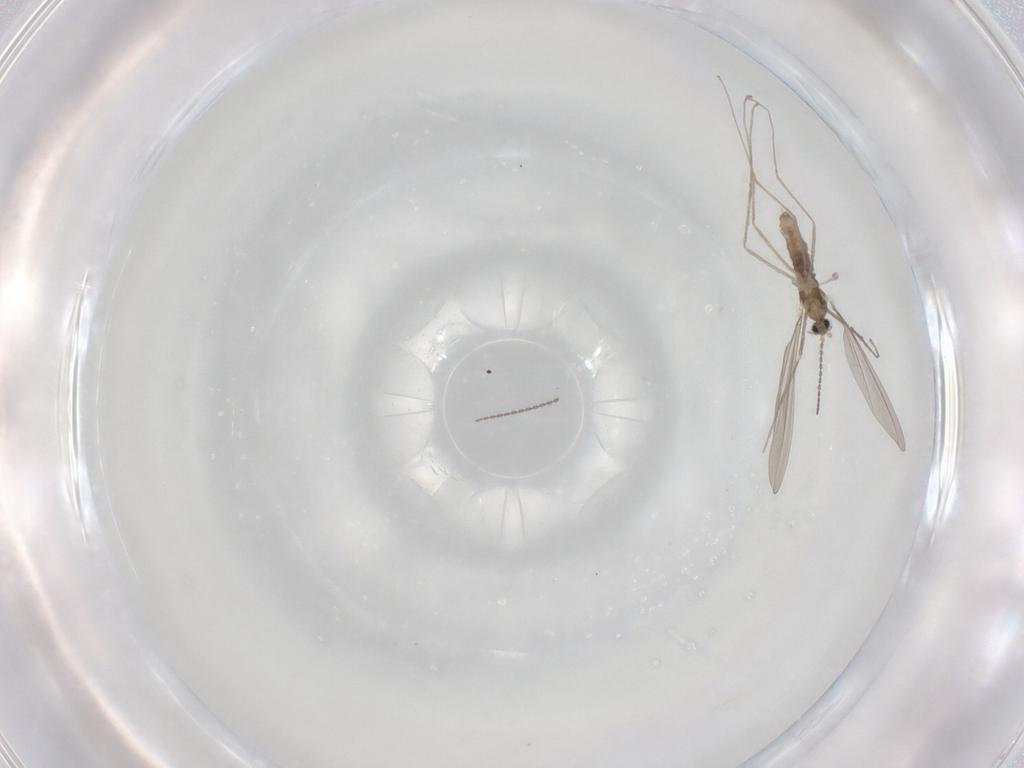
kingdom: Animalia
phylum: Arthropoda
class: Insecta
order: Diptera
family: Cecidomyiidae
